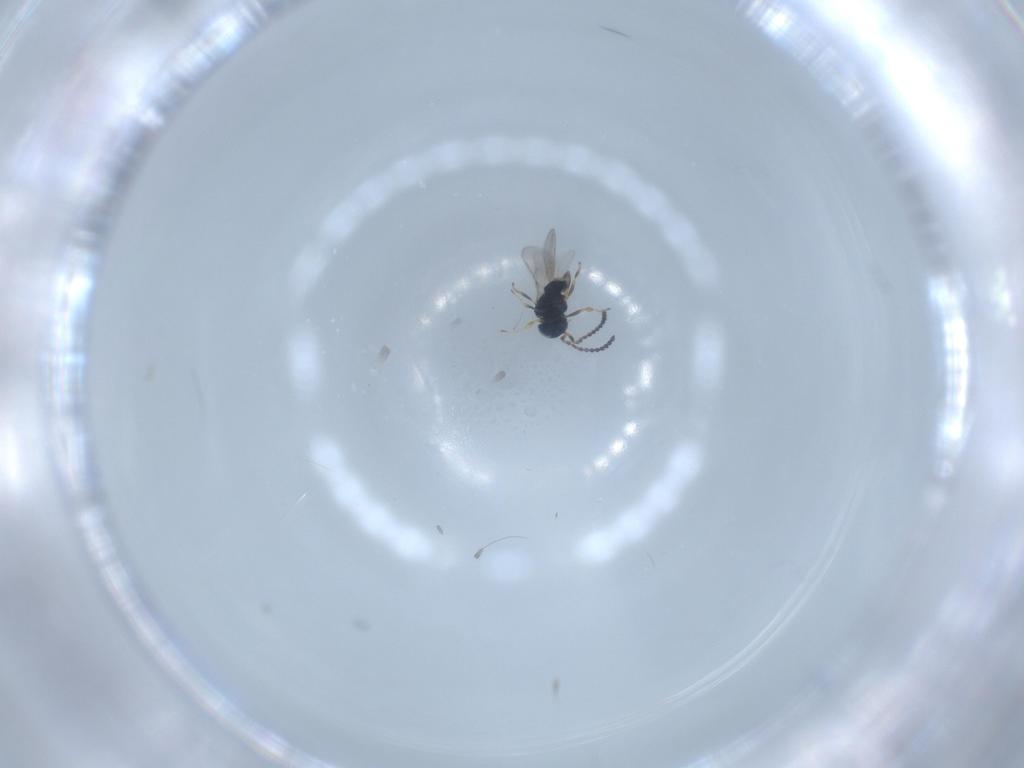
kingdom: Animalia
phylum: Arthropoda
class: Insecta
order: Hymenoptera
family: Scelionidae
